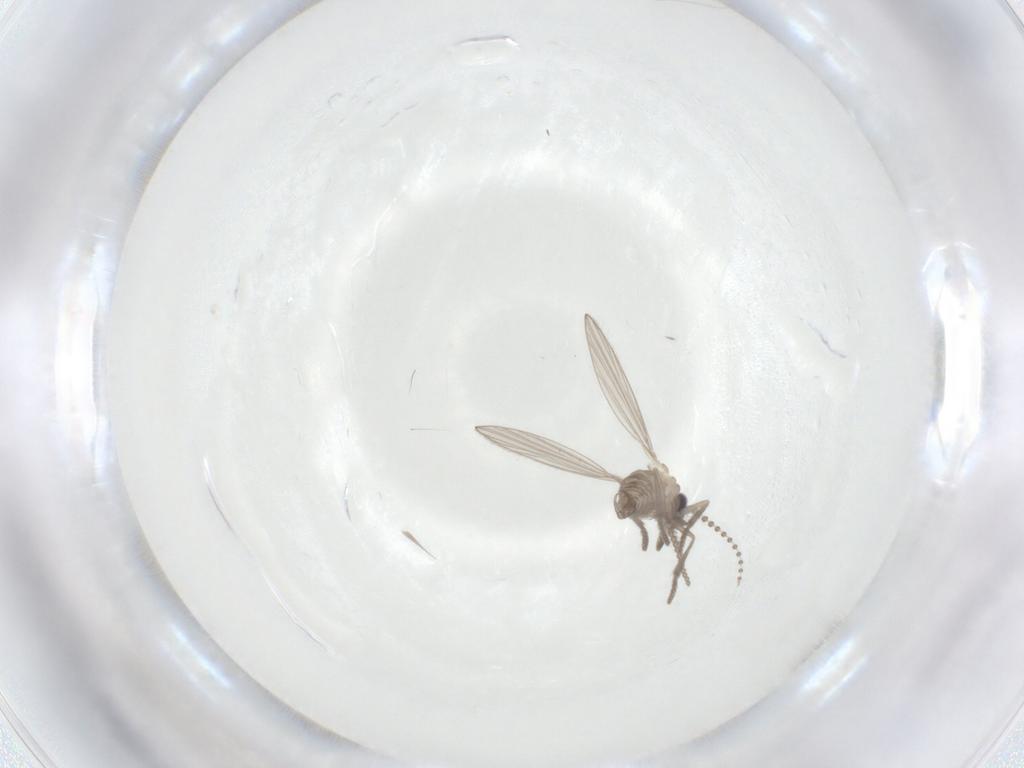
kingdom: Animalia
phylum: Arthropoda
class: Insecta
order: Diptera
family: Psychodidae
